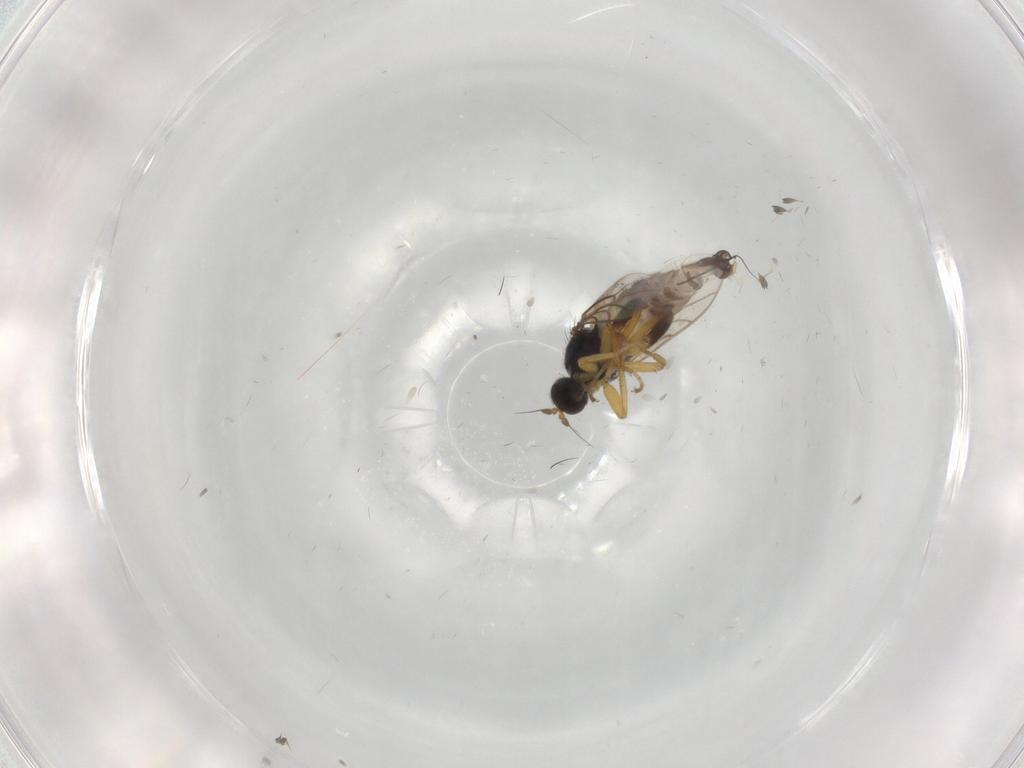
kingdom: Animalia
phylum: Arthropoda
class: Insecta
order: Diptera
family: Hybotidae
